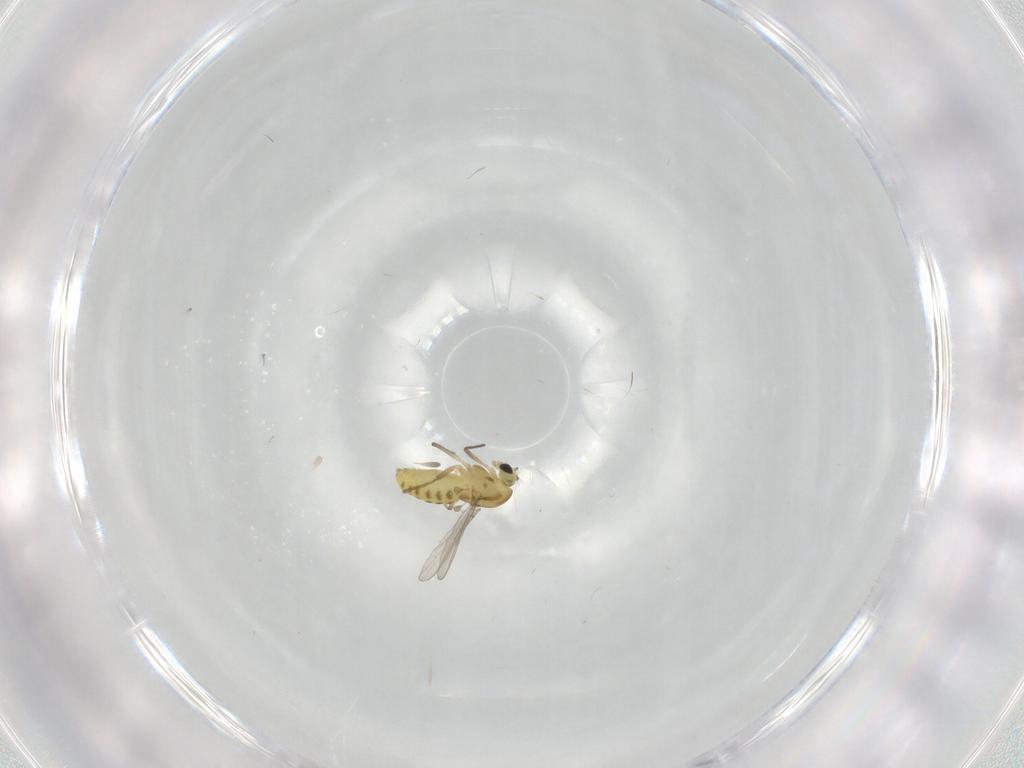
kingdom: Animalia
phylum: Arthropoda
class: Insecta
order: Diptera
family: Chironomidae
